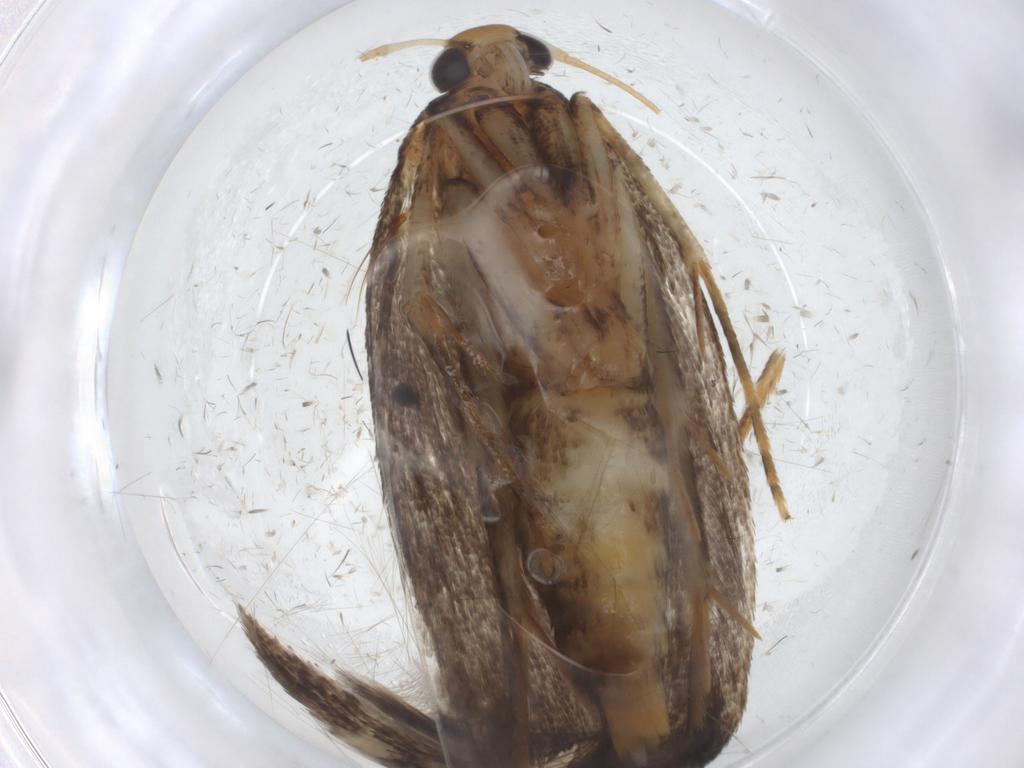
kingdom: Animalia
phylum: Arthropoda
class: Insecta
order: Lepidoptera
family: Cosmopterigidae
